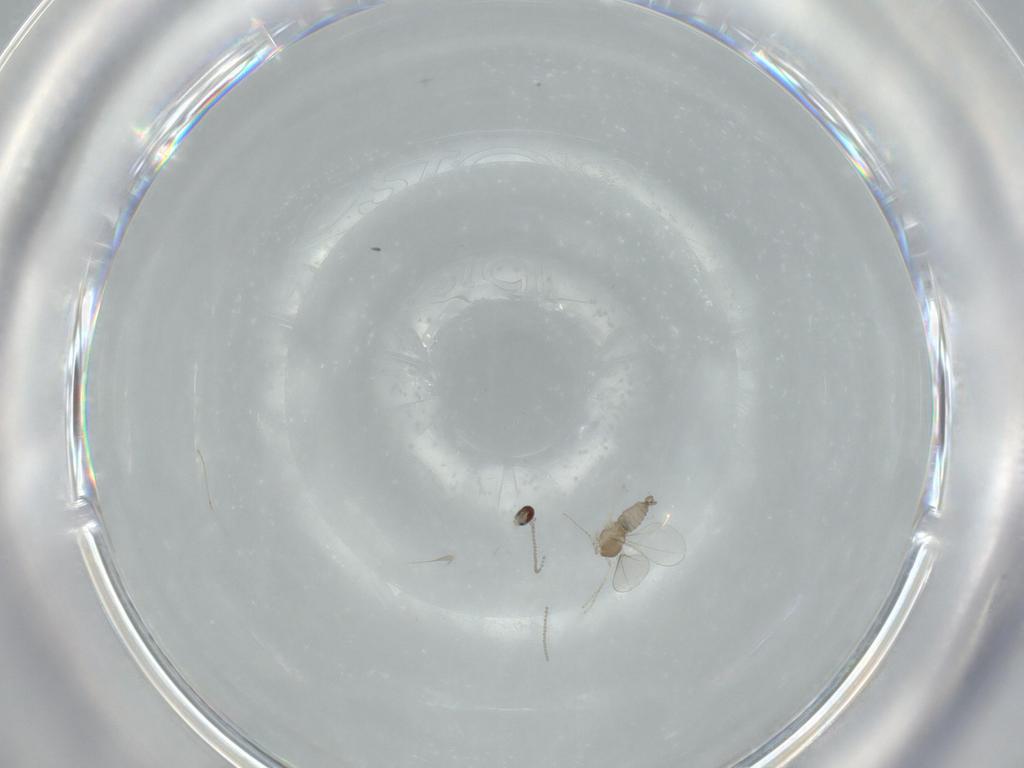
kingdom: Animalia
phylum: Arthropoda
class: Insecta
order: Diptera
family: Cecidomyiidae
